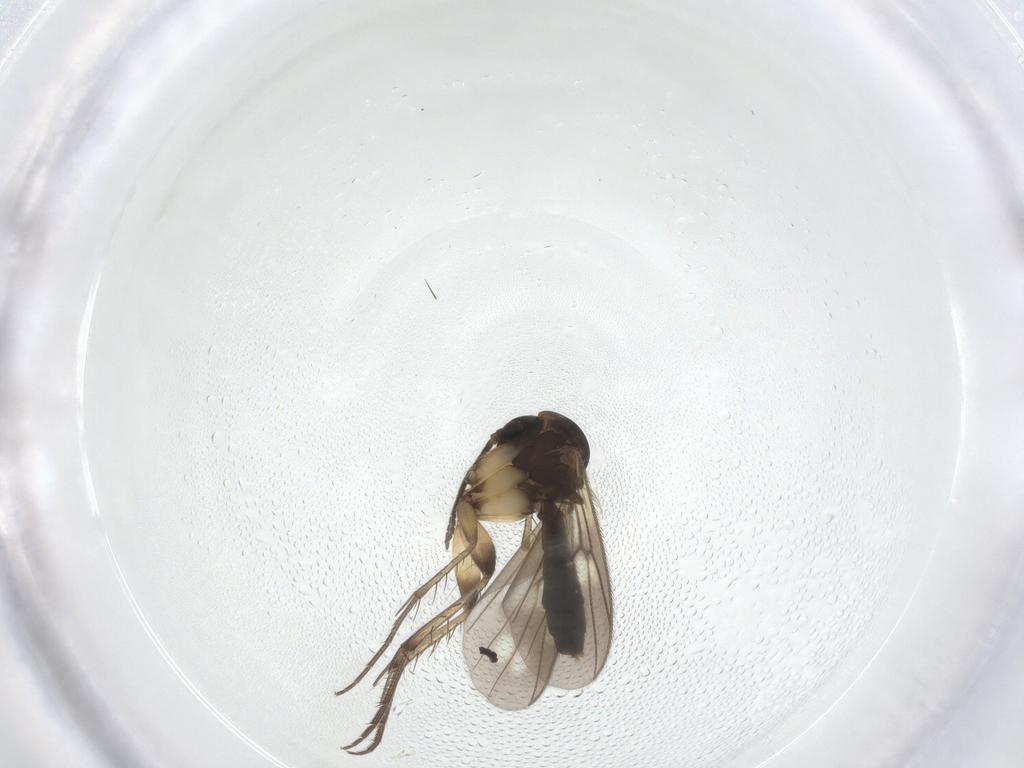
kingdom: Animalia
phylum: Arthropoda
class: Insecta
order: Diptera
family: Mycetophilidae
